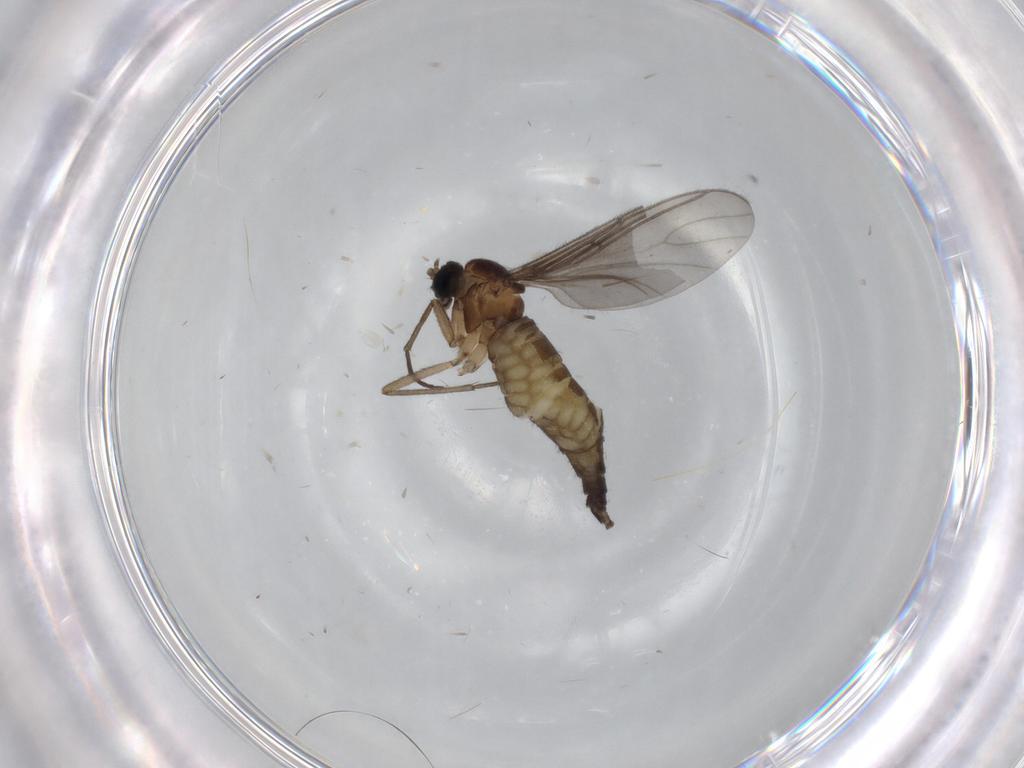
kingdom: Animalia
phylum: Arthropoda
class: Insecta
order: Diptera
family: Sciaridae
